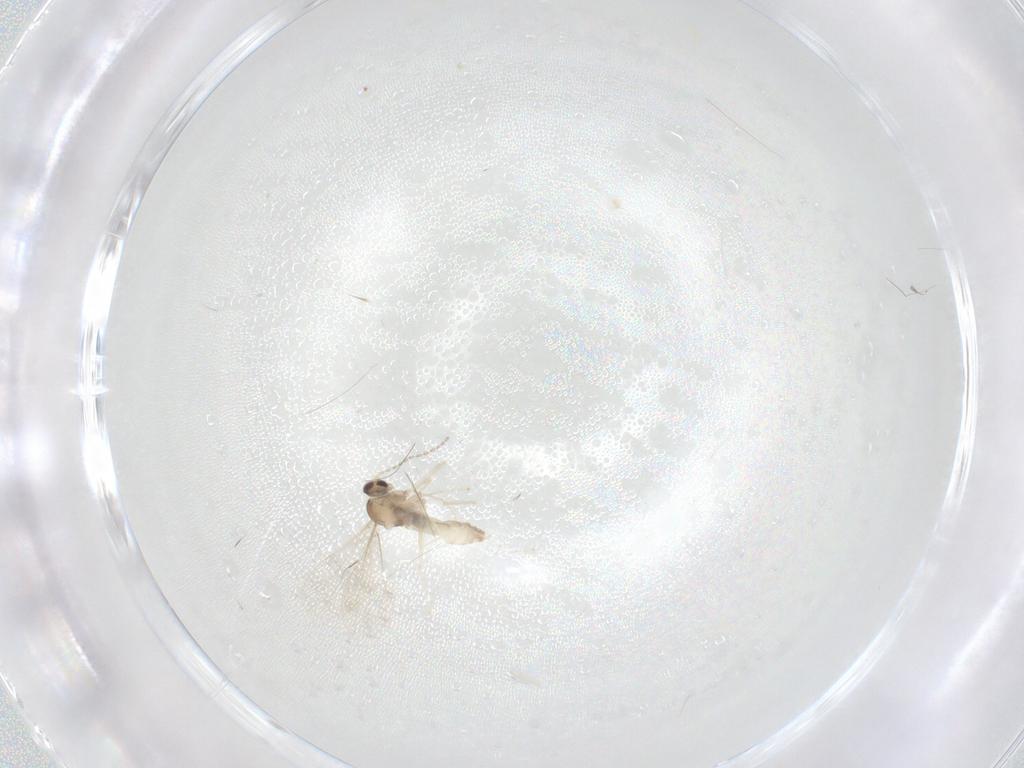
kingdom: Animalia
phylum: Arthropoda
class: Insecta
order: Diptera
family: Cecidomyiidae
